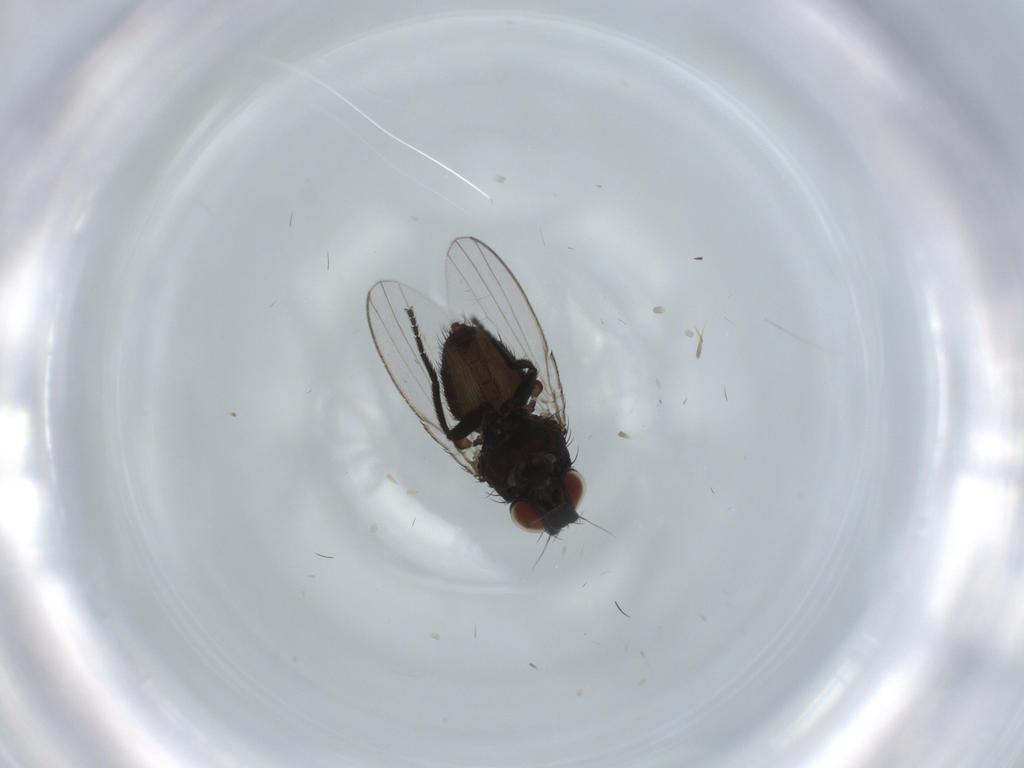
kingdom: Animalia
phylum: Arthropoda
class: Insecta
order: Diptera
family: Milichiidae
